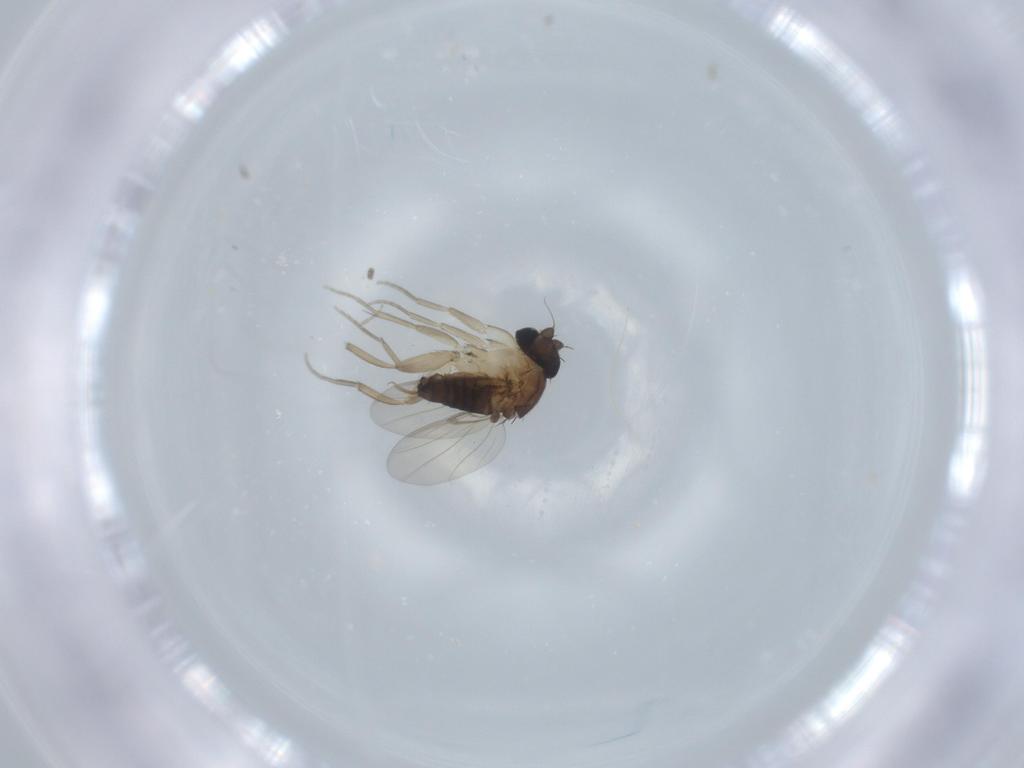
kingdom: Animalia
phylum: Arthropoda
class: Insecta
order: Diptera
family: Phoridae
